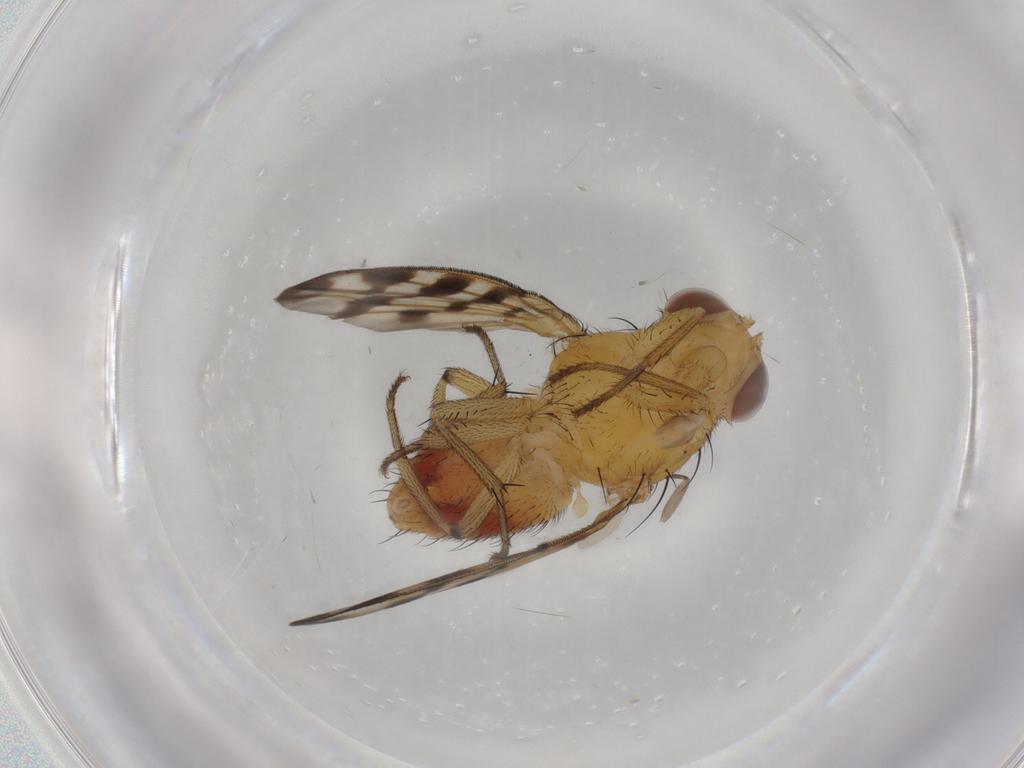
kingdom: Animalia
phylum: Arthropoda
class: Insecta
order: Diptera
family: Sciaridae
